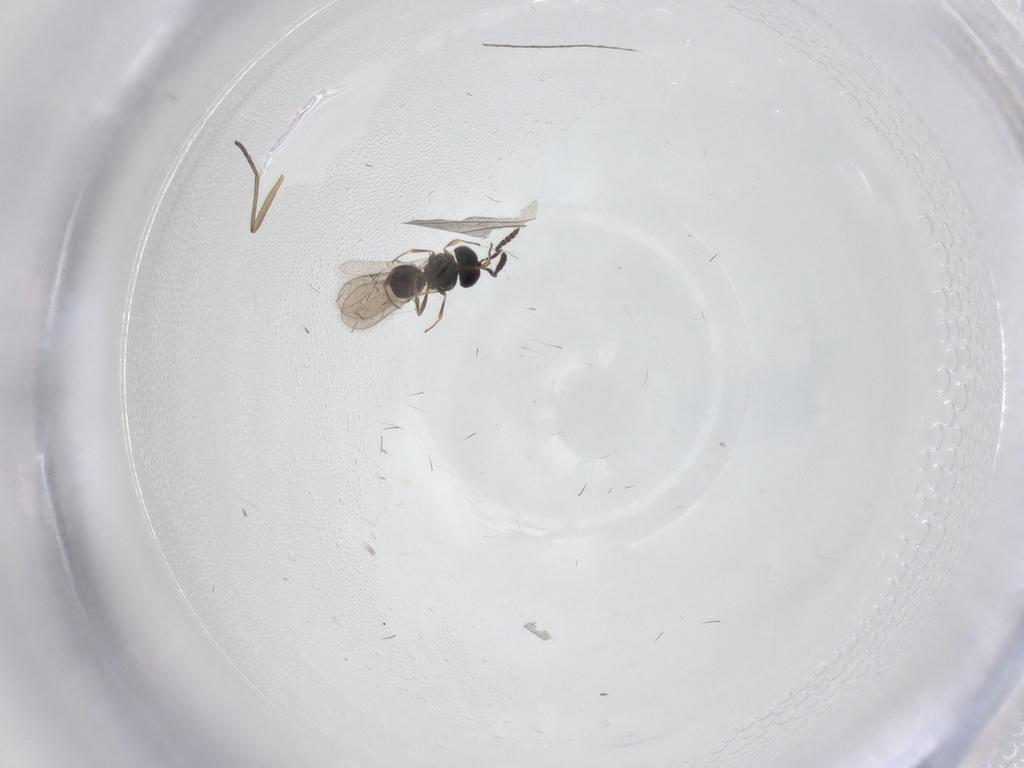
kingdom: Animalia
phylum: Arthropoda
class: Insecta
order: Hymenoptera
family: Scelionidae
